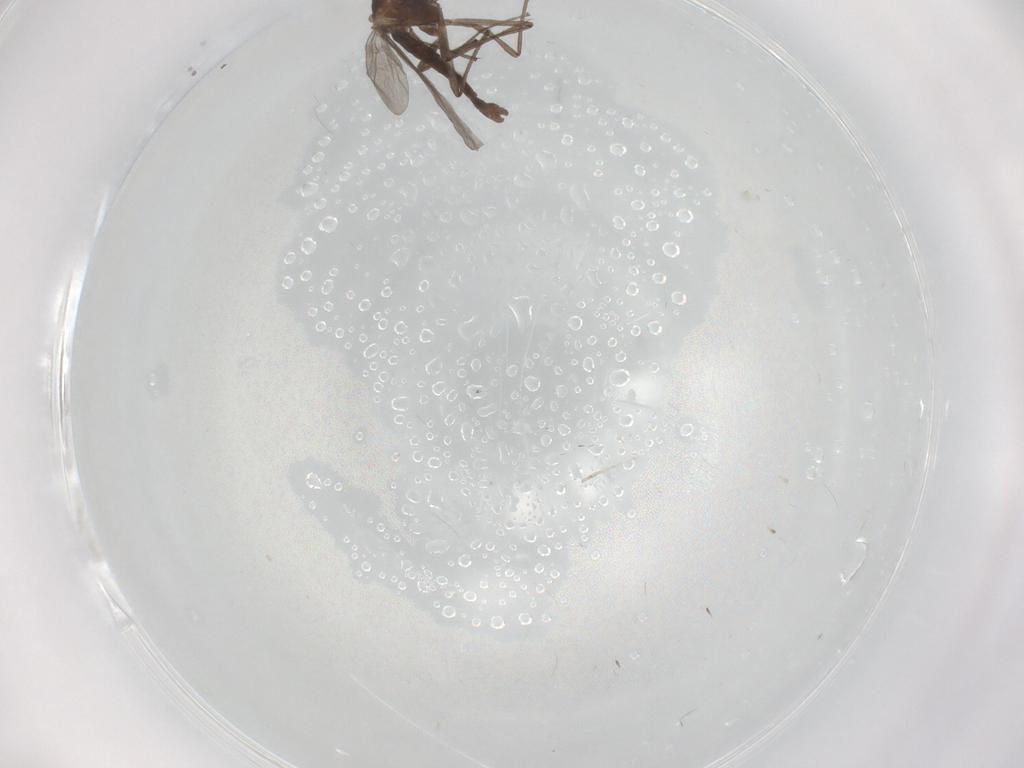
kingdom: Animalia
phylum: Arthropoda
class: Insecta
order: Diptera
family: Chironomidae
